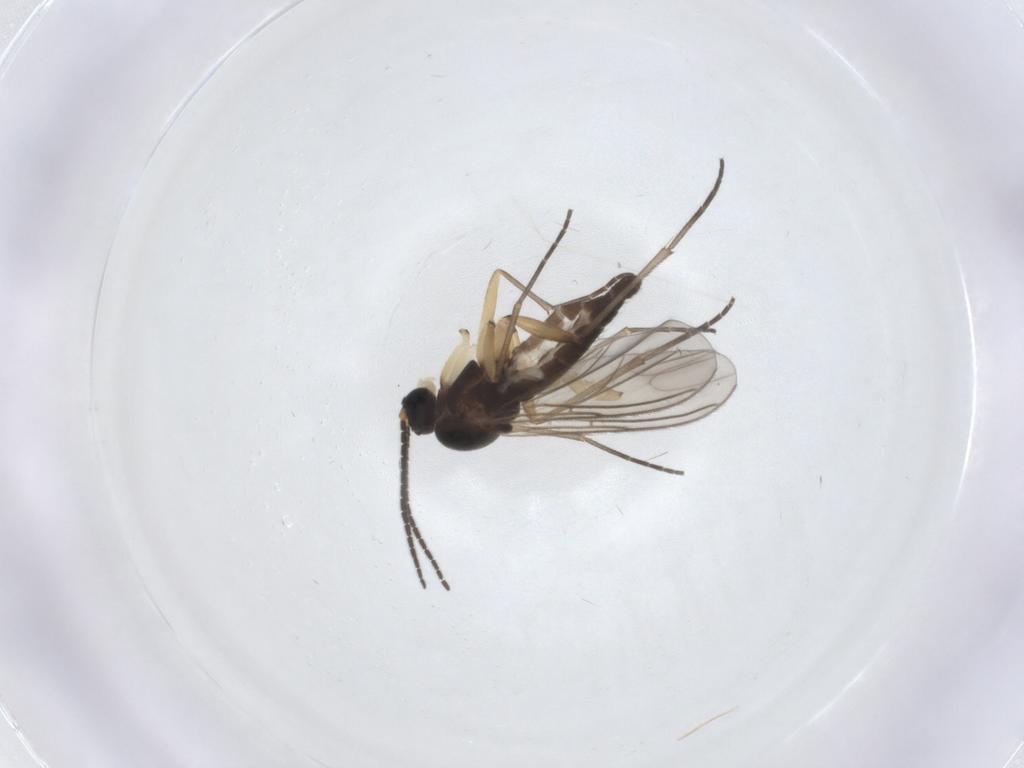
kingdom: Animalia
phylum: Arthropoda
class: Insecta
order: Diptera
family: Sciaridae
